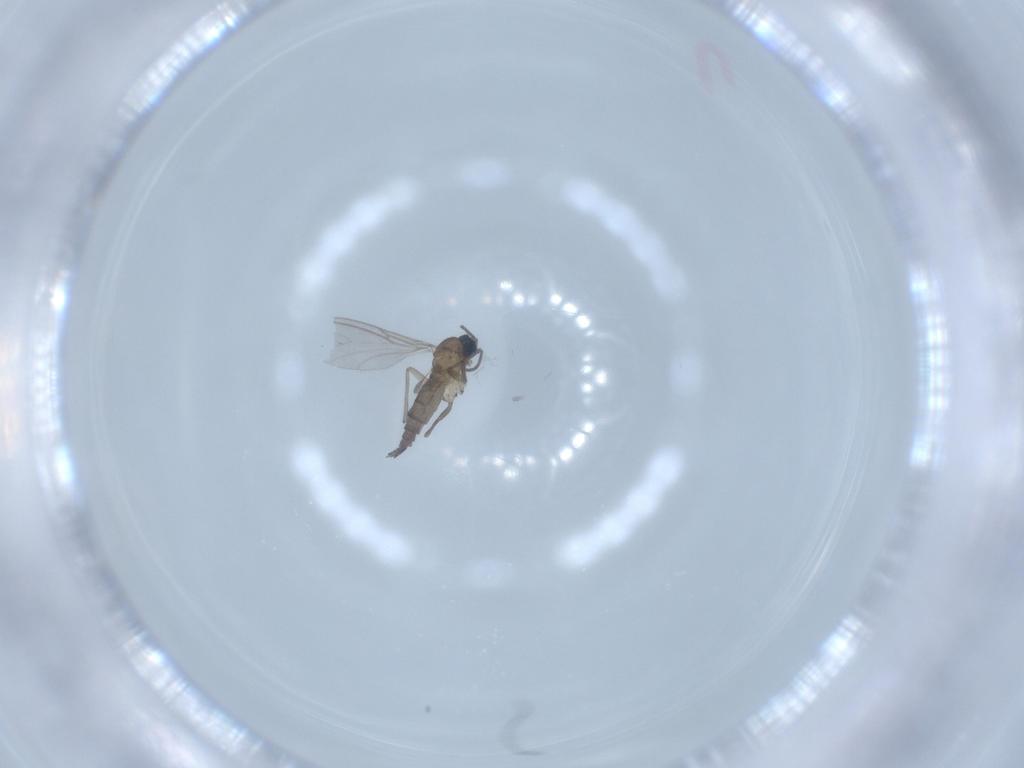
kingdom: Animalia
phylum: Arthropoda
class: Insecta
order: Diptera
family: Sciaridae
